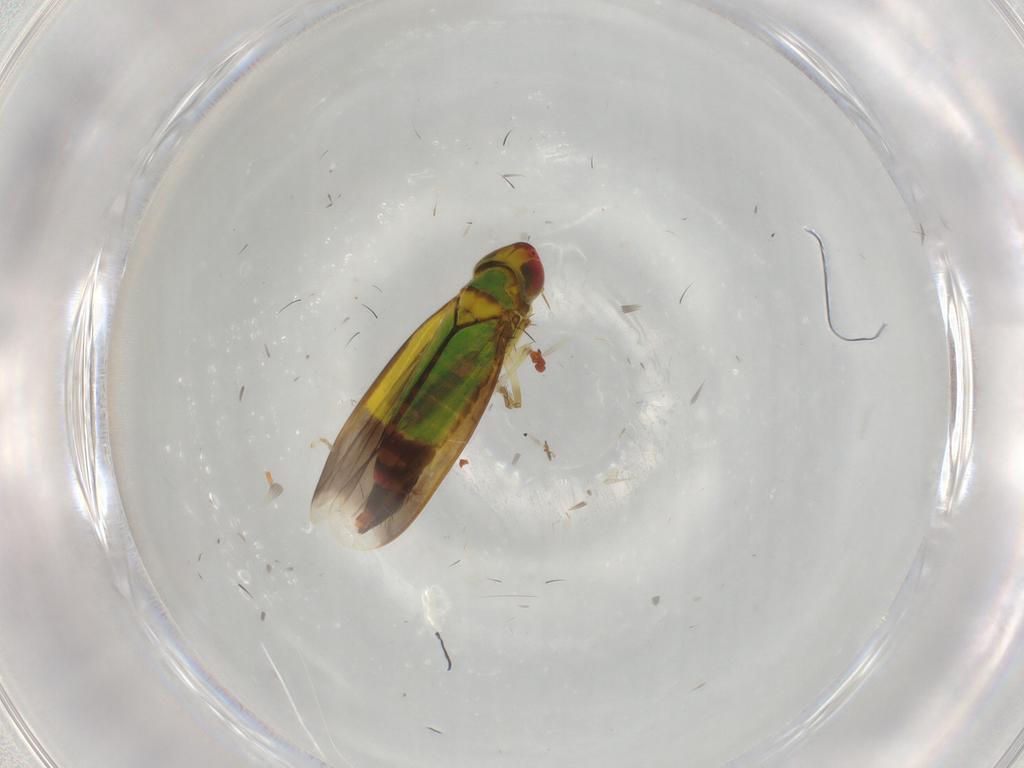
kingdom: Animalia
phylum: Arthropoda
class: Insecta
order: Hemiptera
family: Cicadellidae
